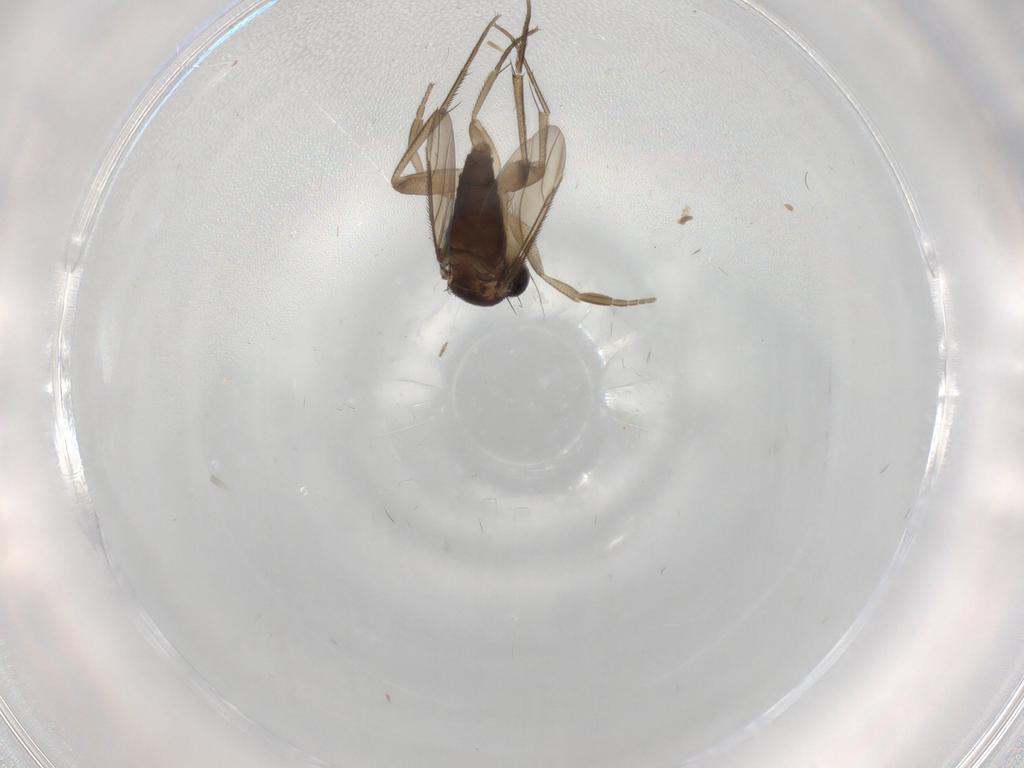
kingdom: Animalia
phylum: Arthropoda
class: Insecta
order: Diptera
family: Phoridae
